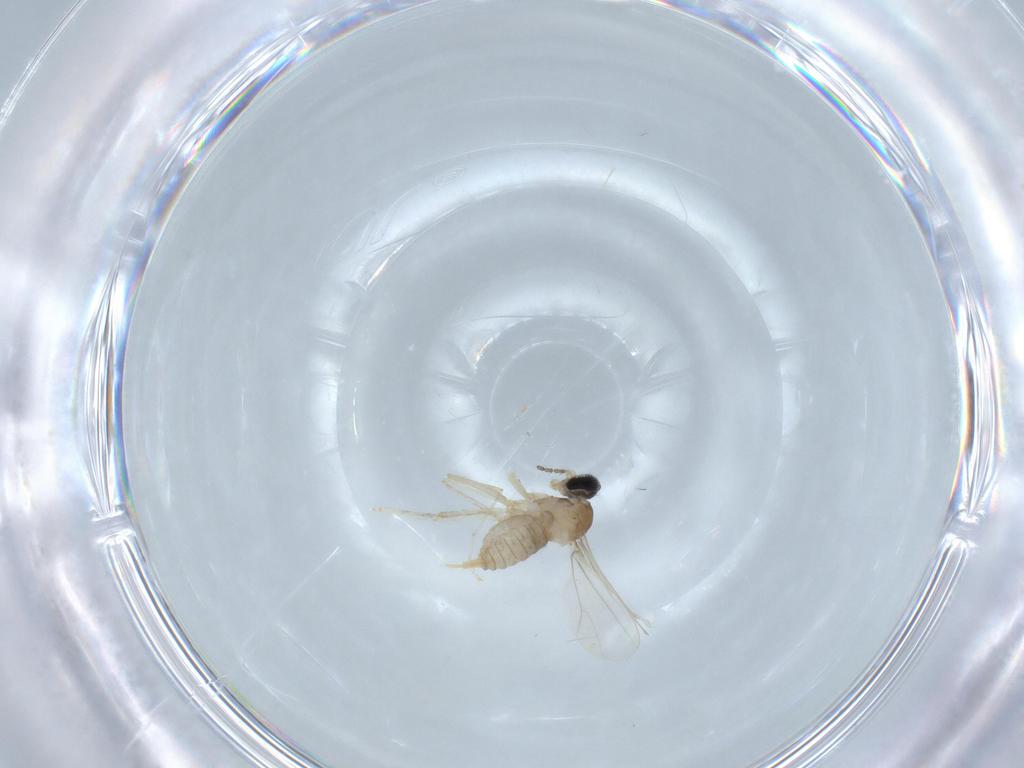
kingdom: Animalia
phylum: Arthropoda
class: Insecta
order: Diptera
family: Cecidomyiidae
